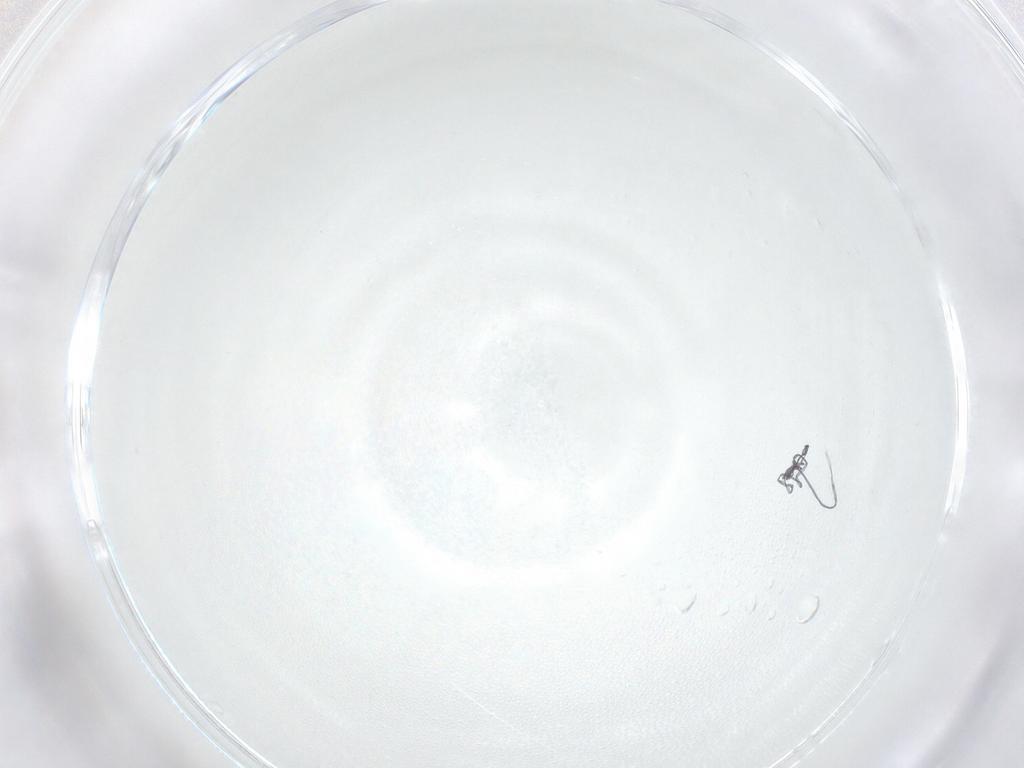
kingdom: Animalia
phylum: Arthropoda
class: Insecta
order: Diptera
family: Sciaridae
